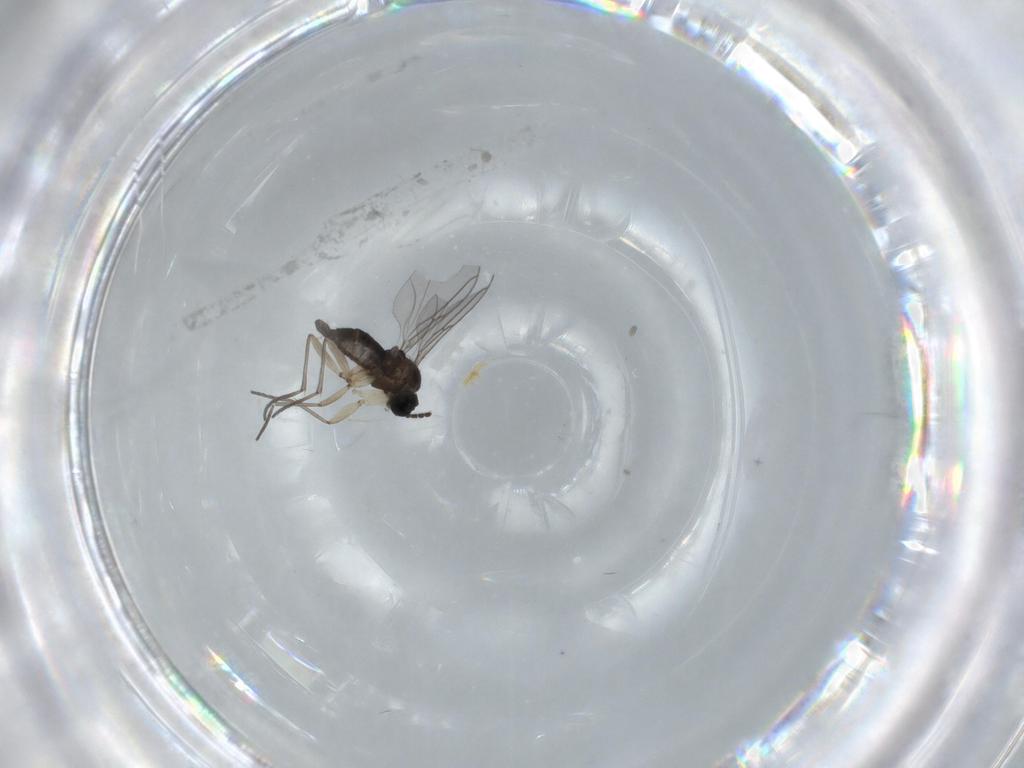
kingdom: Animalia
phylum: Arthropoda
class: Insecta
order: Diptera
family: Sciaridae
